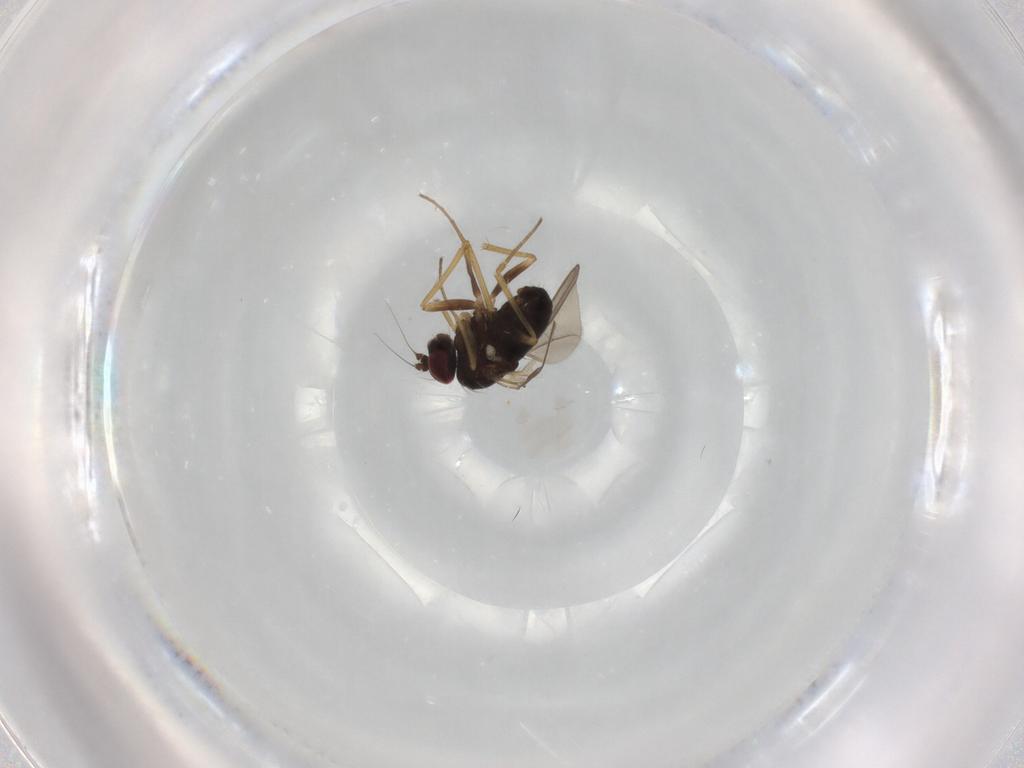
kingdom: Animalia
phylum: Arthropoda
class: Insecta
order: Diptera
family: Dolichopodidae
